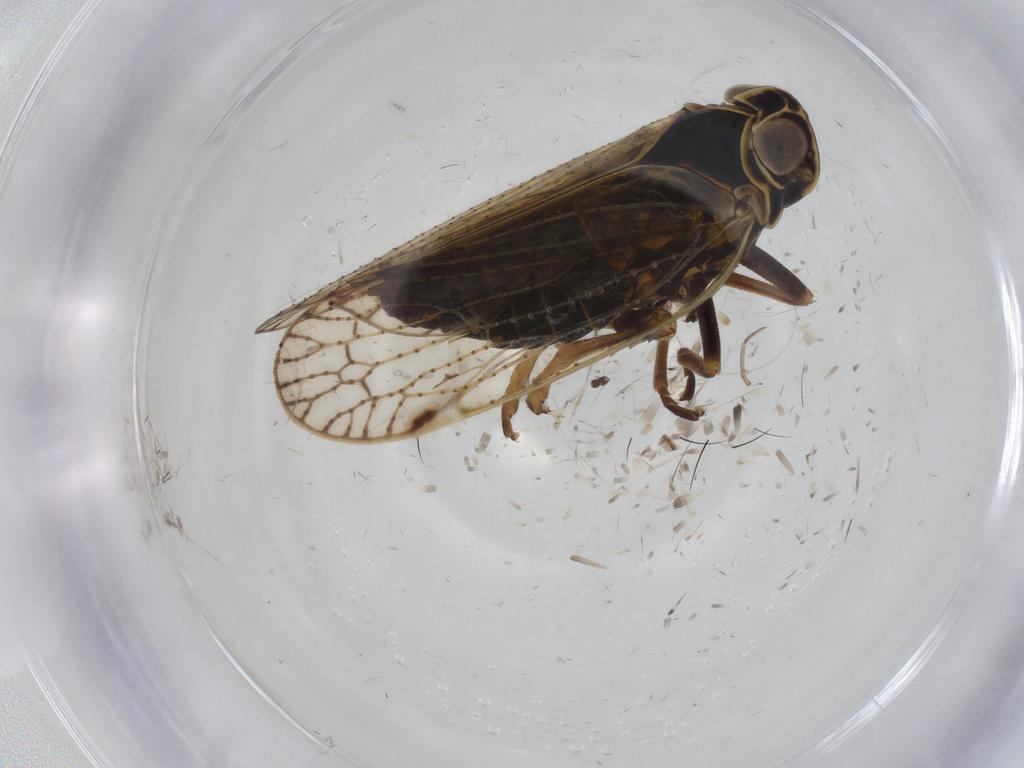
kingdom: Animalia
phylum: Arthropoda
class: Insecta
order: Hemiptera
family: Cixiidae
